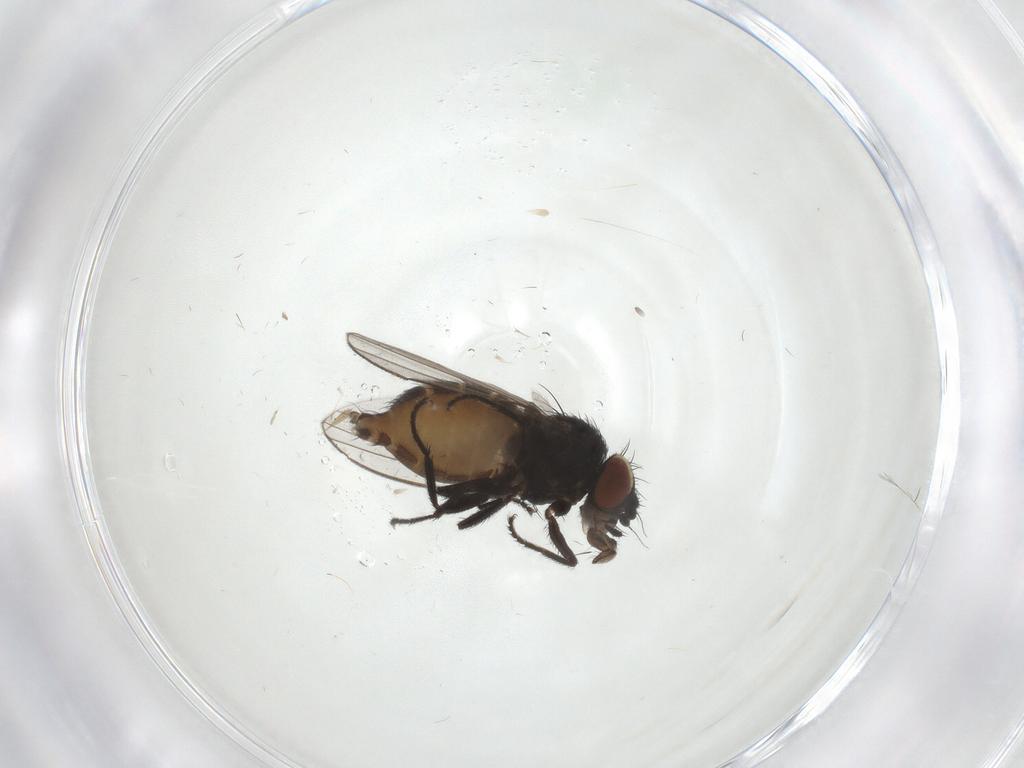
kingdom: Animalia
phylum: Arthropoda
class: Insecta
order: Diptera
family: Milichiidae
